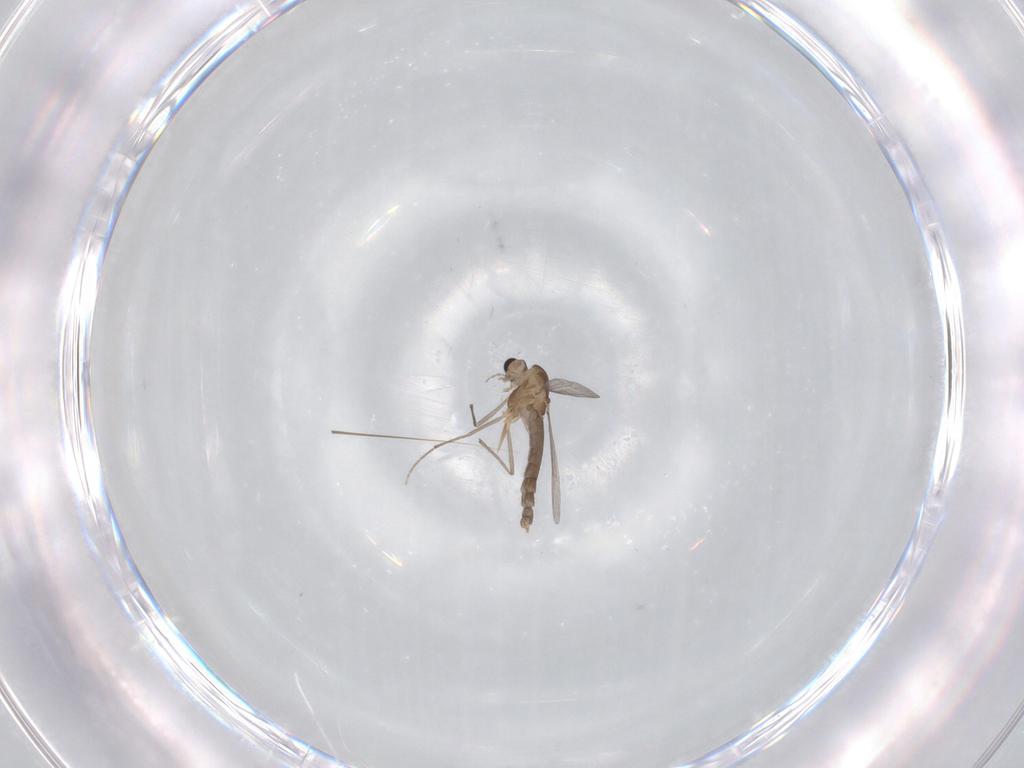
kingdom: Animalia
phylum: Arthropoda
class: Insecta
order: Diptera
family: Chironomidae
